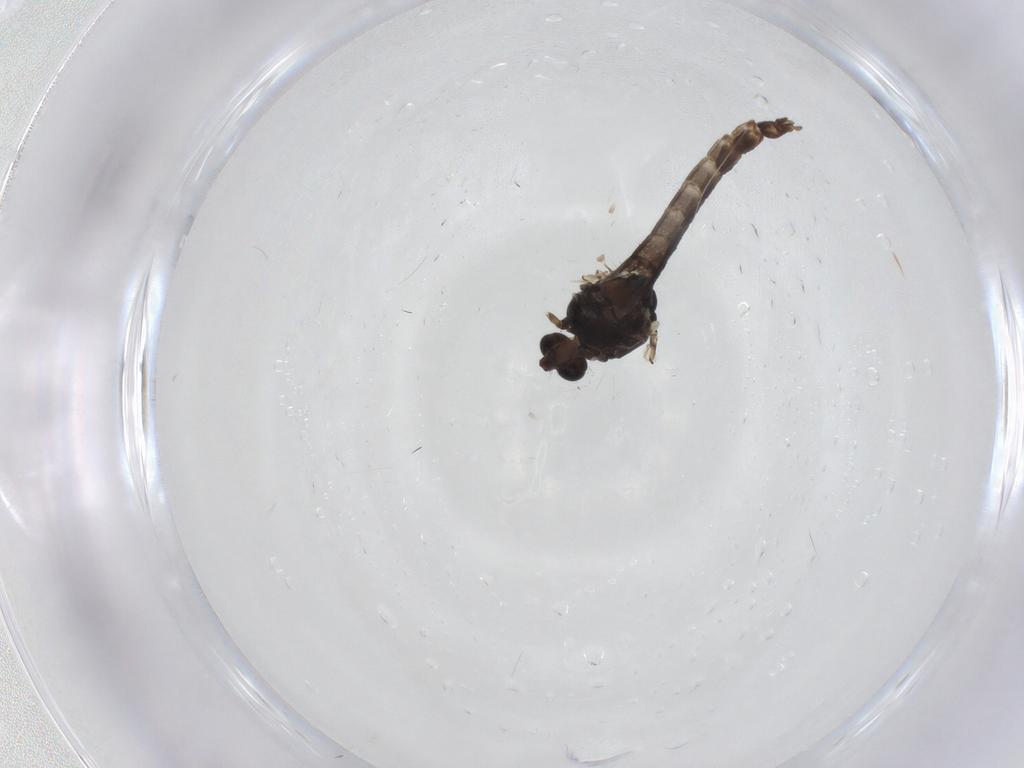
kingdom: Animalia
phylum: Arthropoda
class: Insecta
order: Diptera
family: Chironomidae
